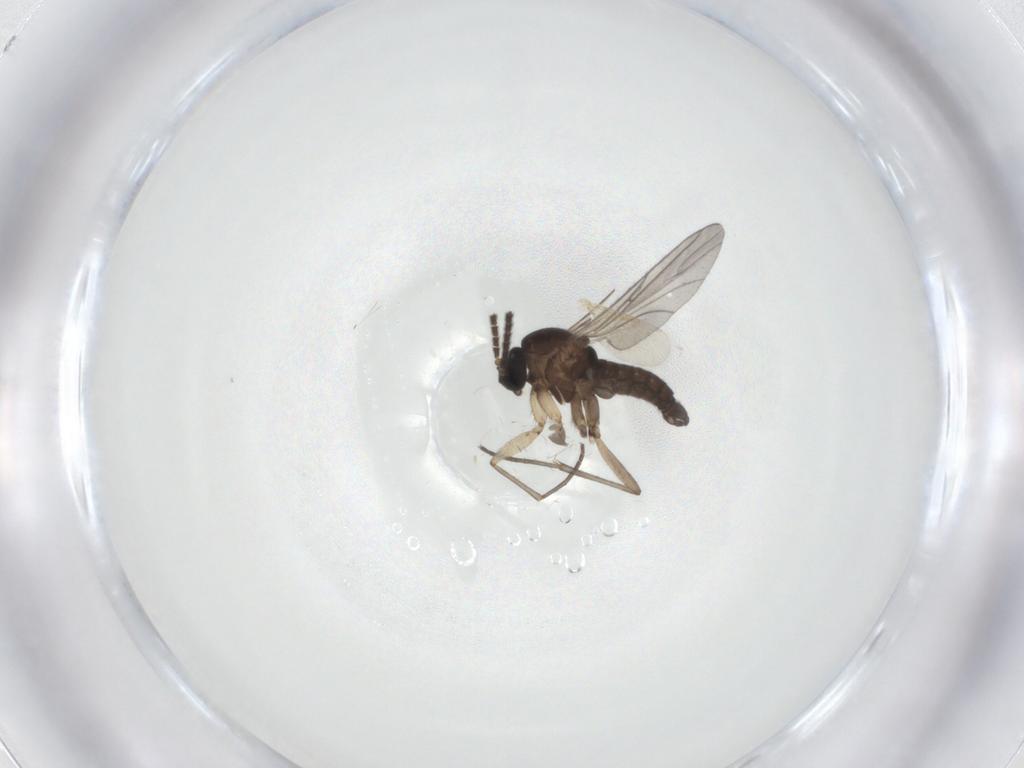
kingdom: Animalia
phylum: Arthropoda
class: Insecta
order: Diptera
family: Sciaridae
